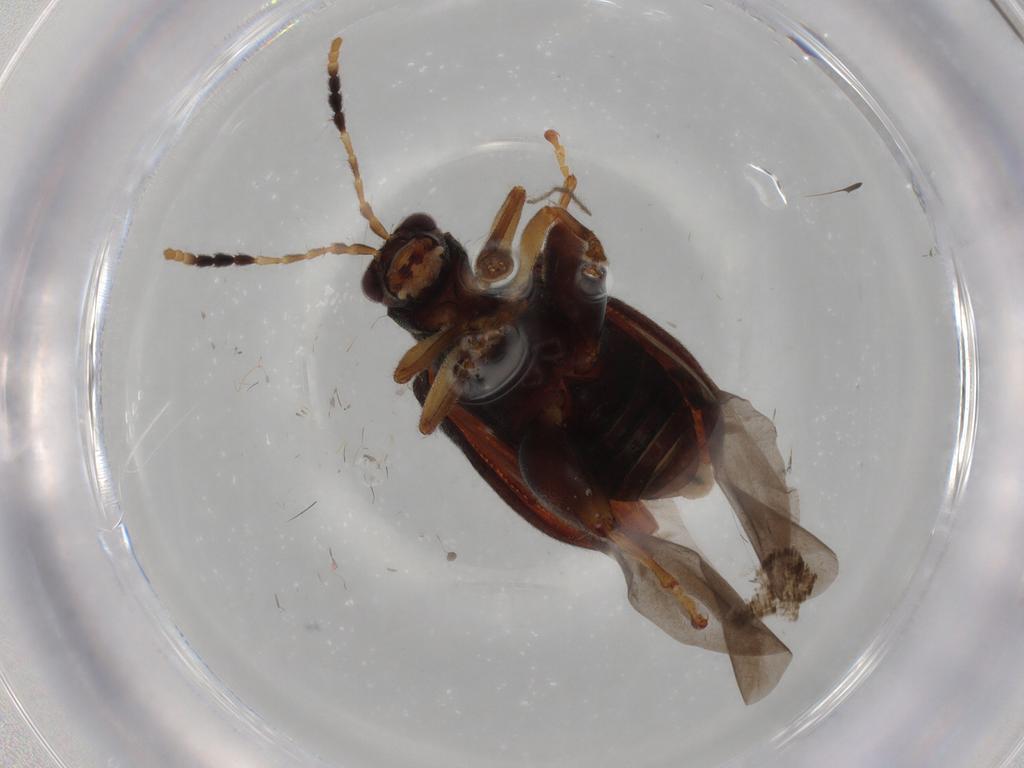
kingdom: Animalia
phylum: Arthropoda
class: Insecta
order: Coleoptera
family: Chrysomelidae
